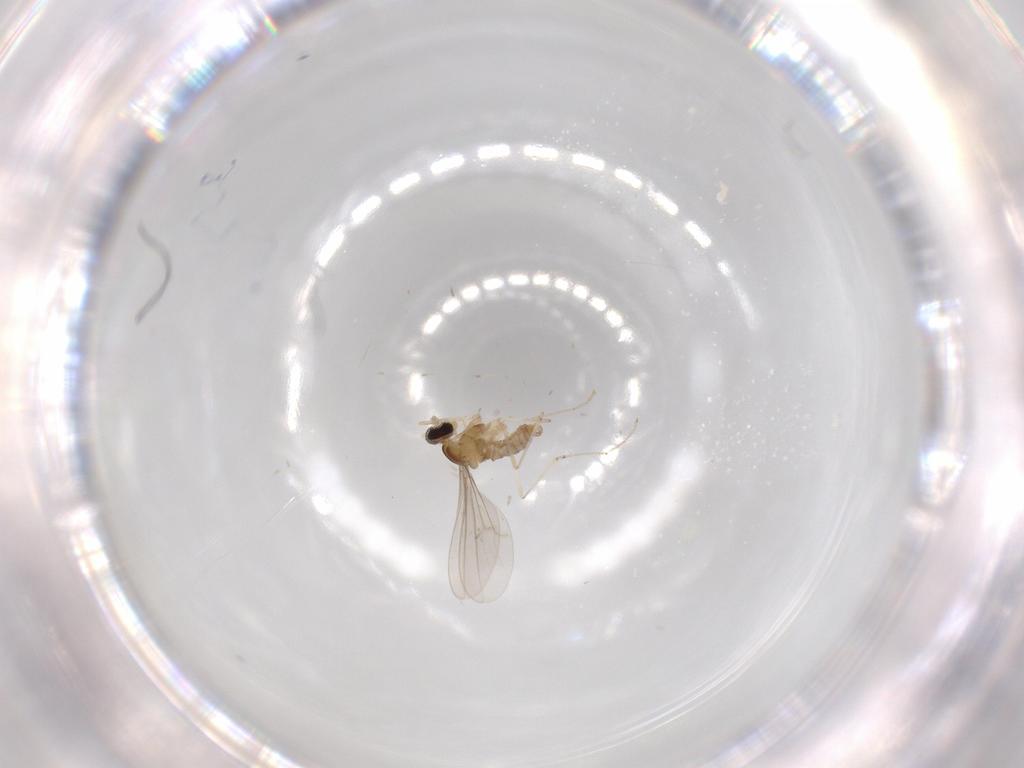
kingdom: Animalia
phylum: Arthropoda
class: Insecta
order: Diptera
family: Cecidomyiidae
